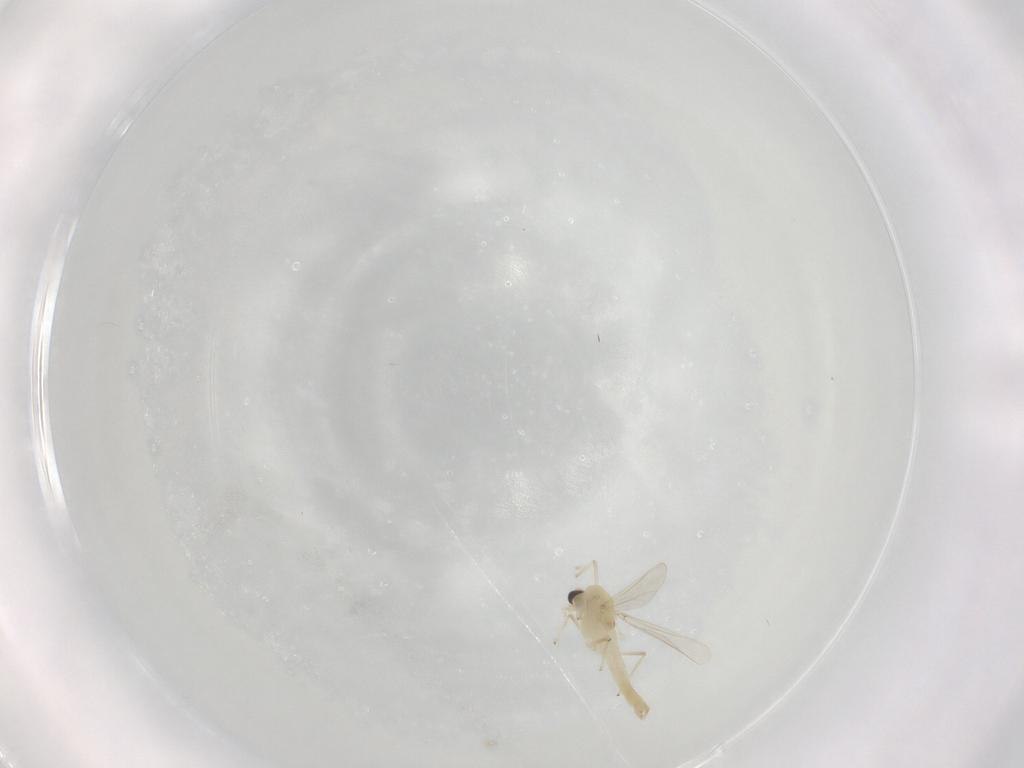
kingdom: Animalia
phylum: Arthropoda
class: Insecta
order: Diptera
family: Chironomidae
